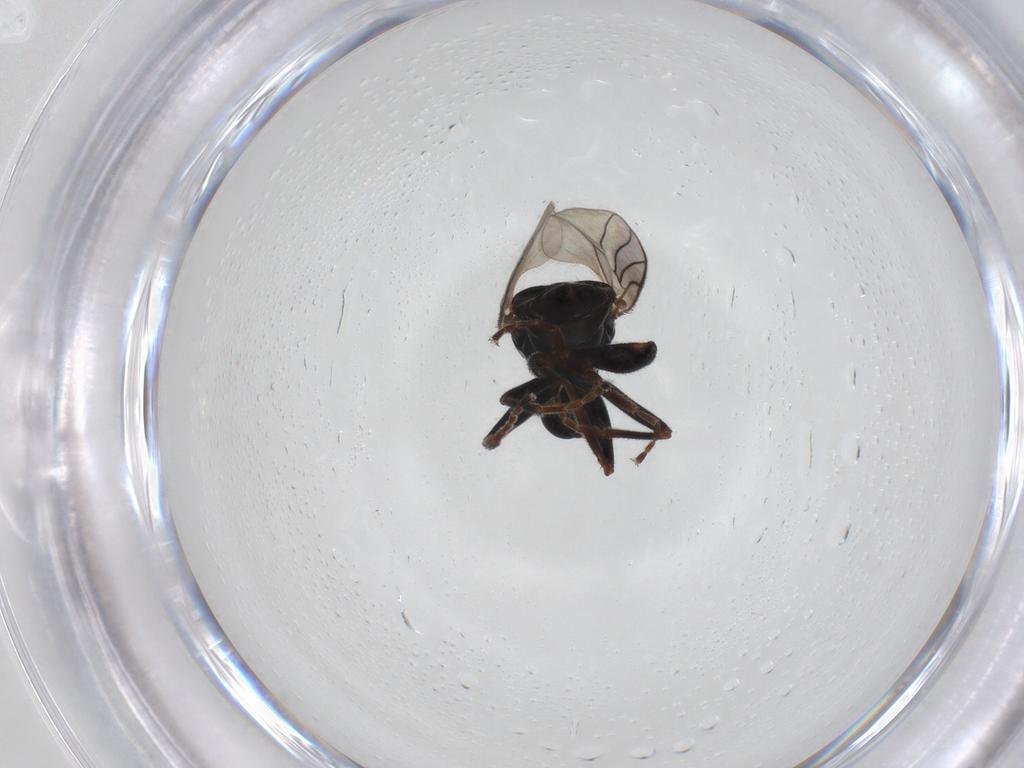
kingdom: Animalia
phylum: Arthropoda
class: Insecta
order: Diptera
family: Hybotidae
